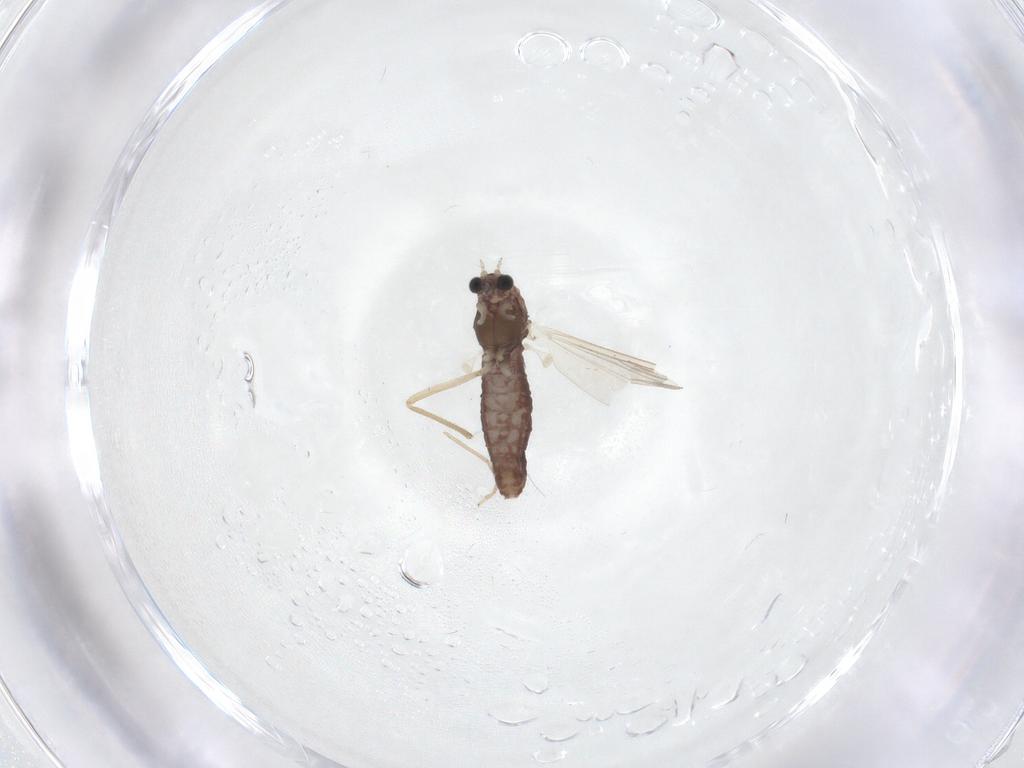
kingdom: Animalia
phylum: Arthropoda
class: Insecta
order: Diptera
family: Chironomidae
